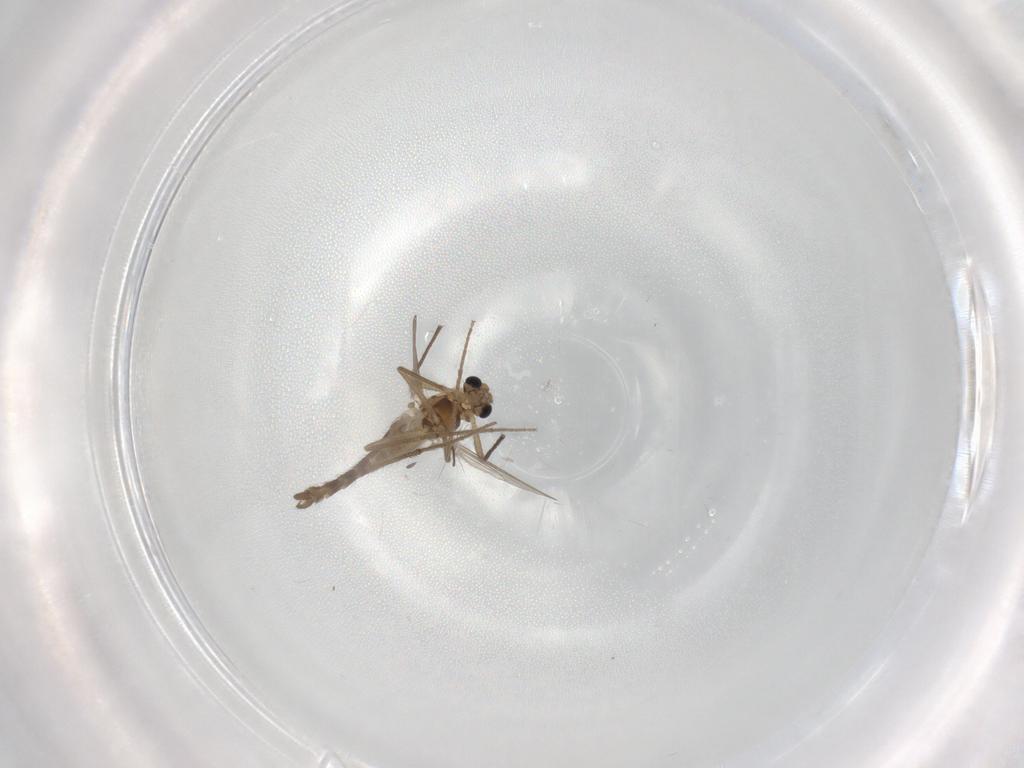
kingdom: Animalia
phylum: Arthropoda
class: Insecta
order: Diptera
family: Chironomidae
